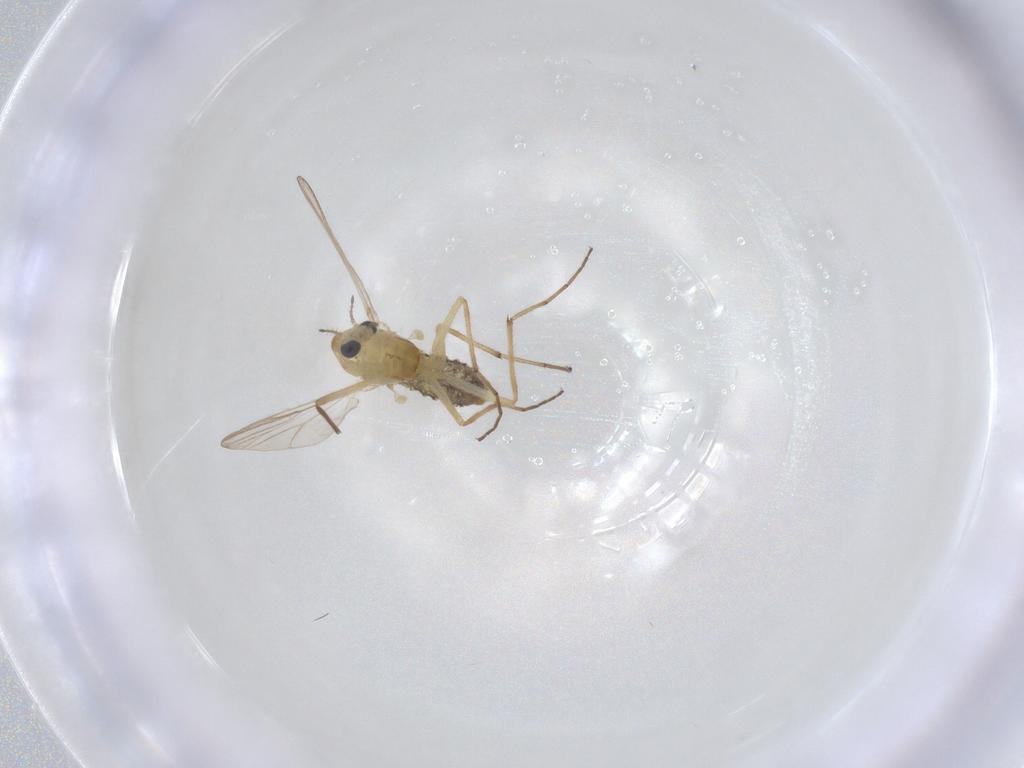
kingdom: Animalia
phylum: Arthropoda
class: Insecta
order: Diptera
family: Chironomidae
